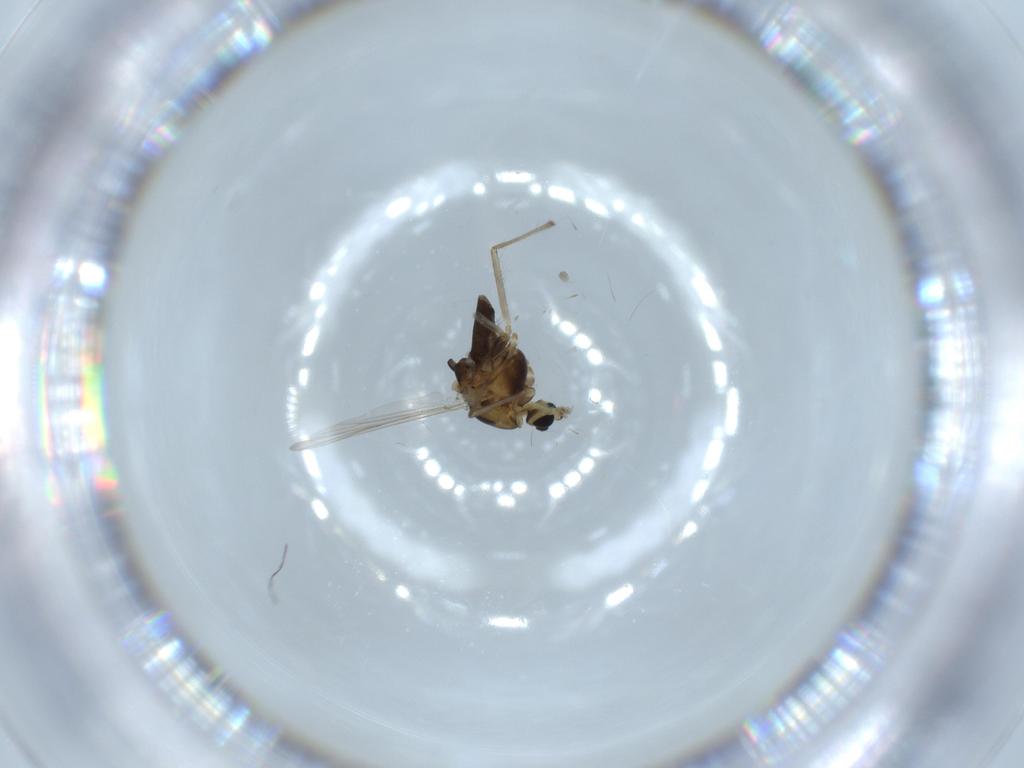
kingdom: Animalia
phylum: Arthropoda
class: Insecta
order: Diptera
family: Chironomidae
